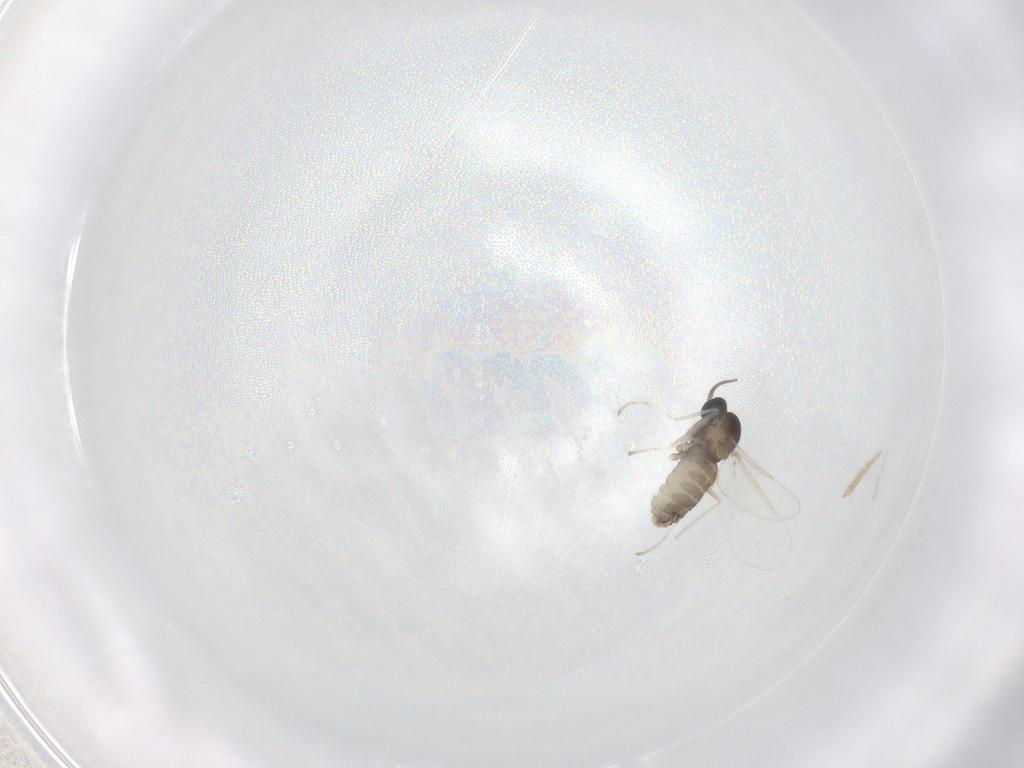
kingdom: Animalia
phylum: Arthropoda
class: Insecta
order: Diptera
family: Cecidomyiidae
